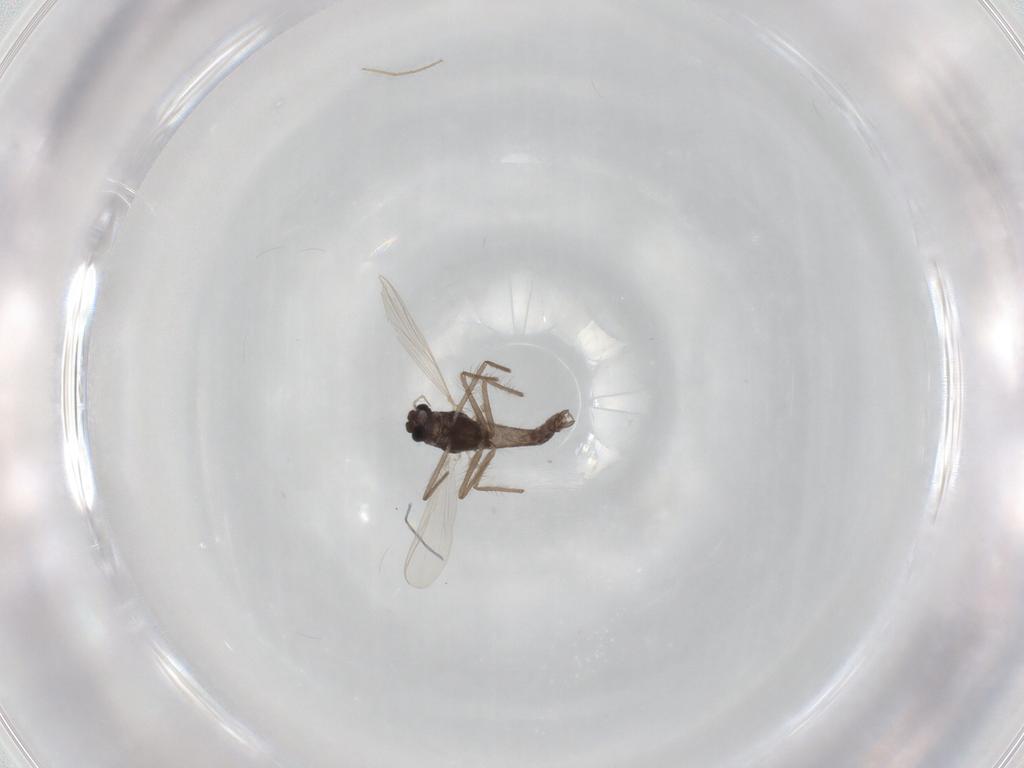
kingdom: Animalia
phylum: Arthropoda
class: Insecta
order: Diptera
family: Chironomidae
